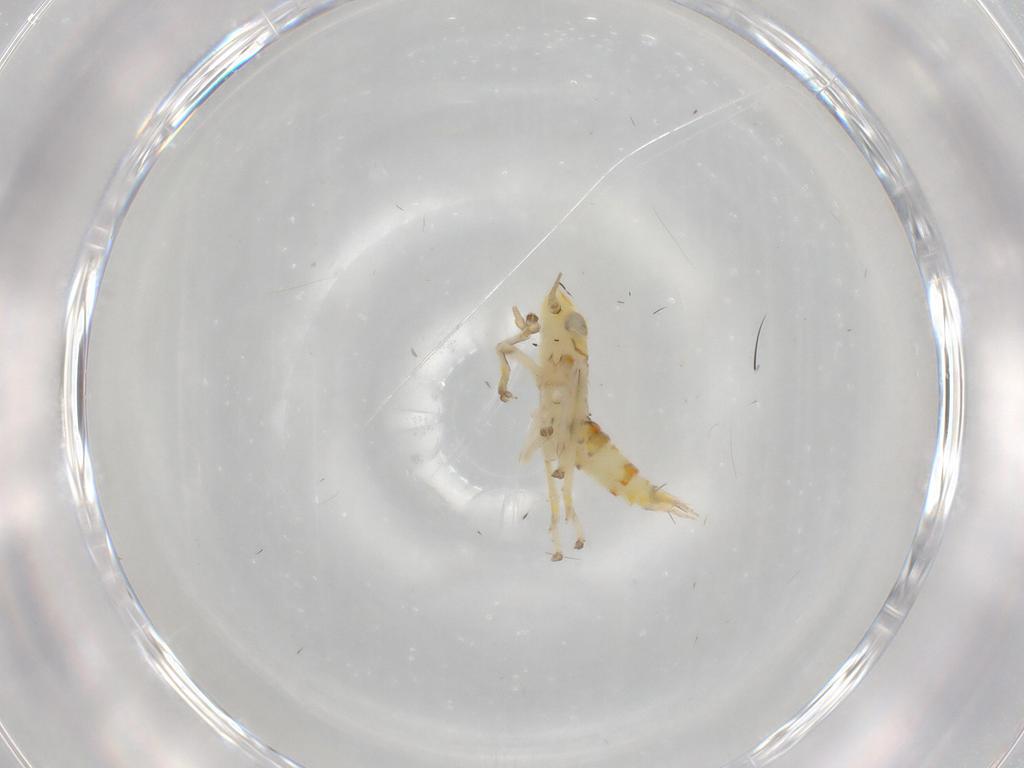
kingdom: Animalia
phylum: Arthropoda
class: Insecta
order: Hemiptera
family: Cicadellidae
